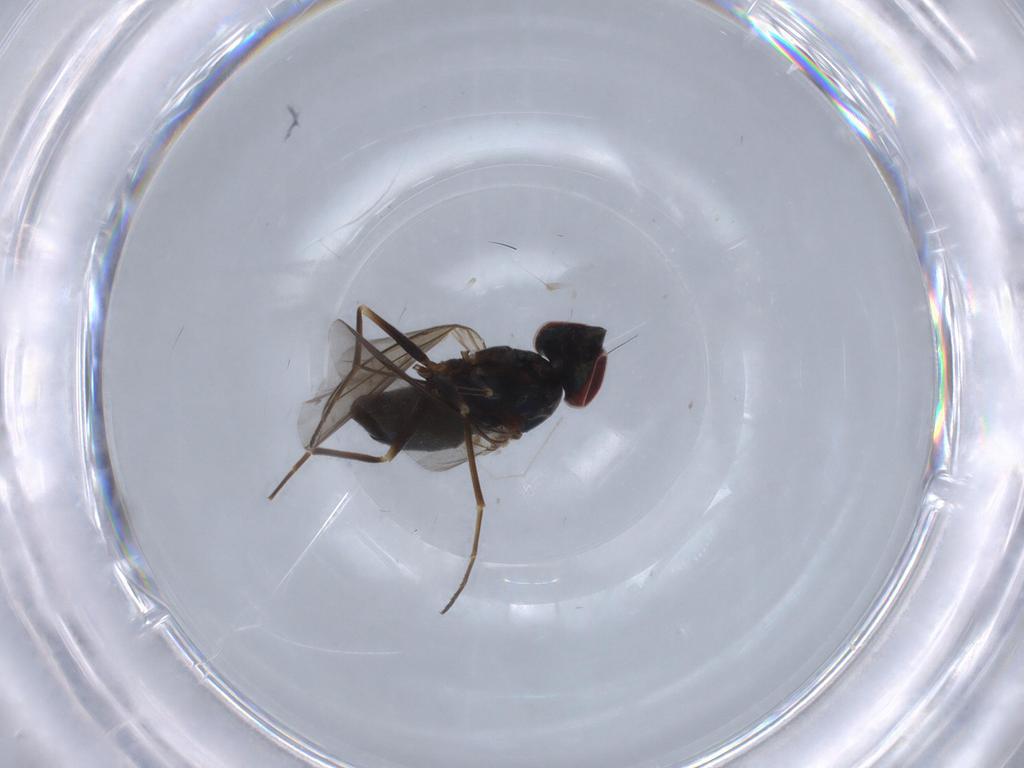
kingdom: Animalia
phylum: Arthropoda
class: Insecta
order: Diptera
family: Dolichopodidae
